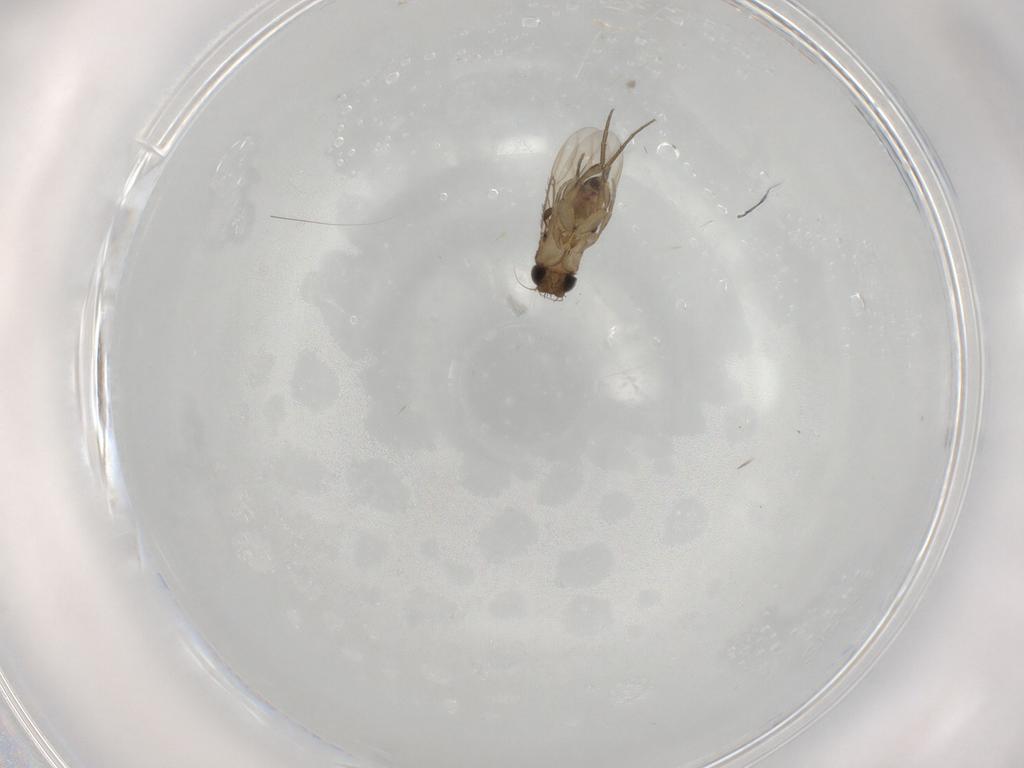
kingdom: Animalia
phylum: Arthropoda
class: Insecta
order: Diptera
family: Phoridae
